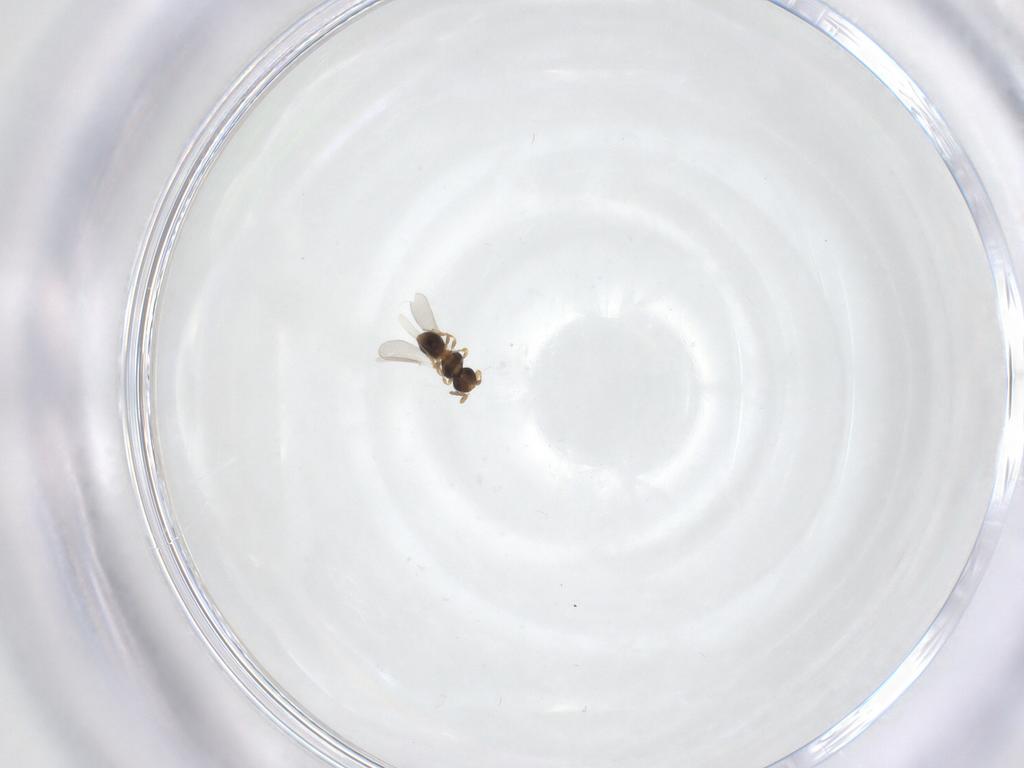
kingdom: Animalia
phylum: Arthropoda
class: Insecta
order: Hymenoptera
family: Platygastridae
